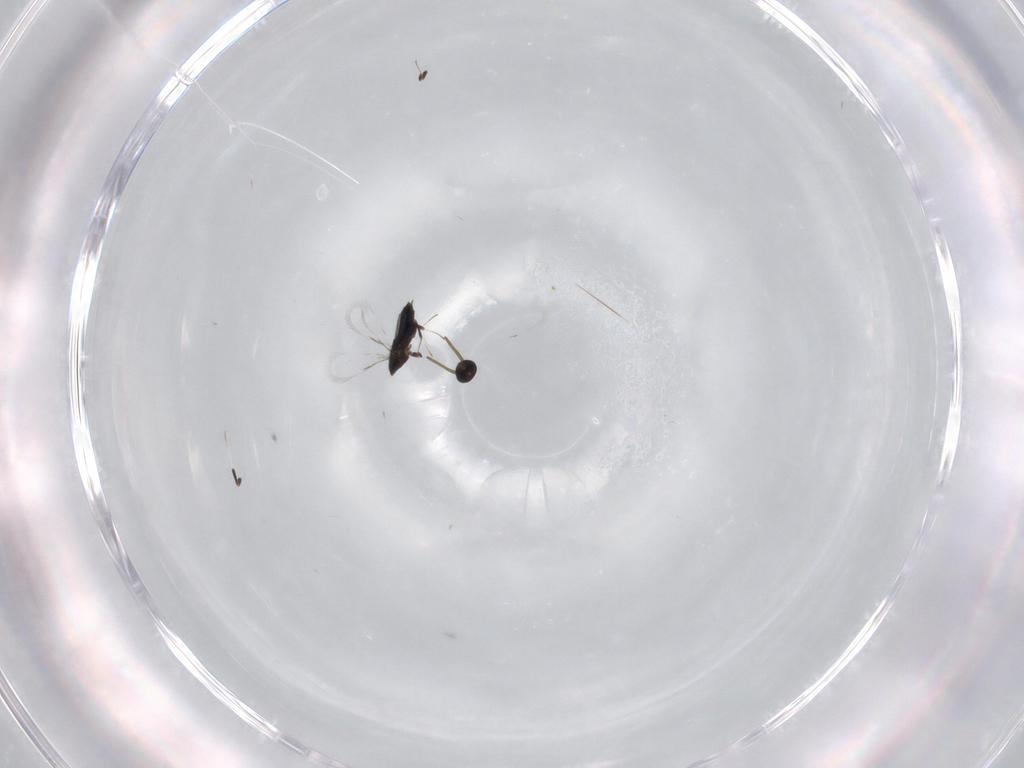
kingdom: Animalia
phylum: Arthropoda
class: Insecta
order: Hymenoptera
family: Signiphoridae
